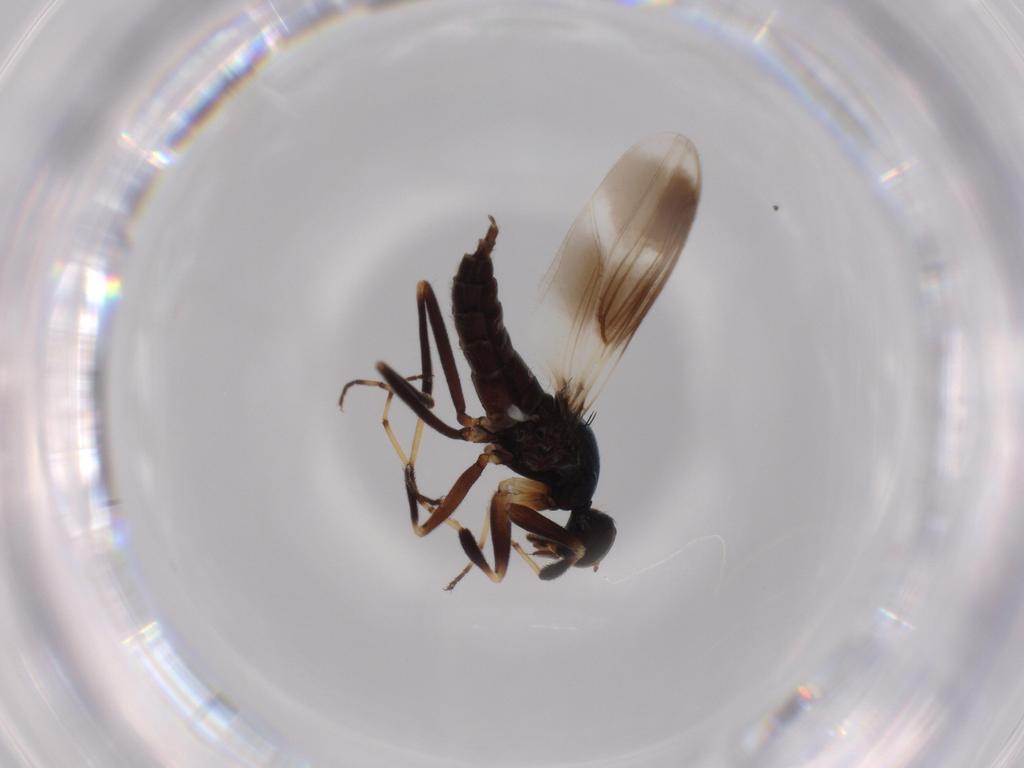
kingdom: Animalia
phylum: Arthropoda
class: Insecta
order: Diptera
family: Hybotidae
